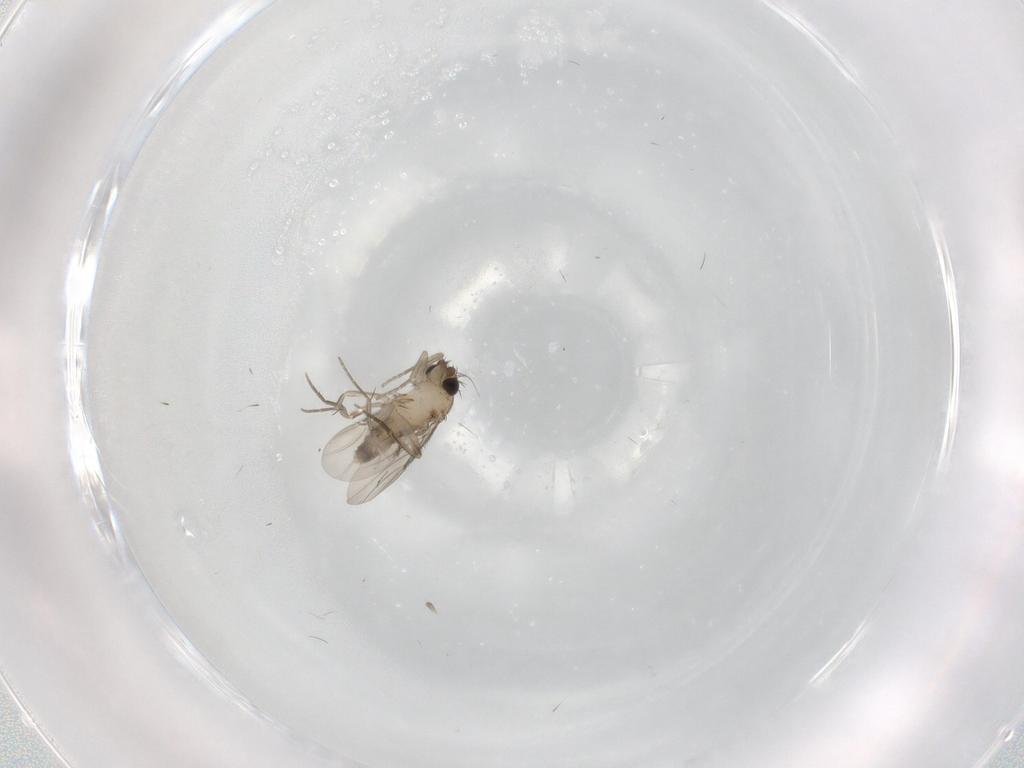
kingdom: Animalia
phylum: Arthropoda
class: Insecta
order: Diptera
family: Phoridae
